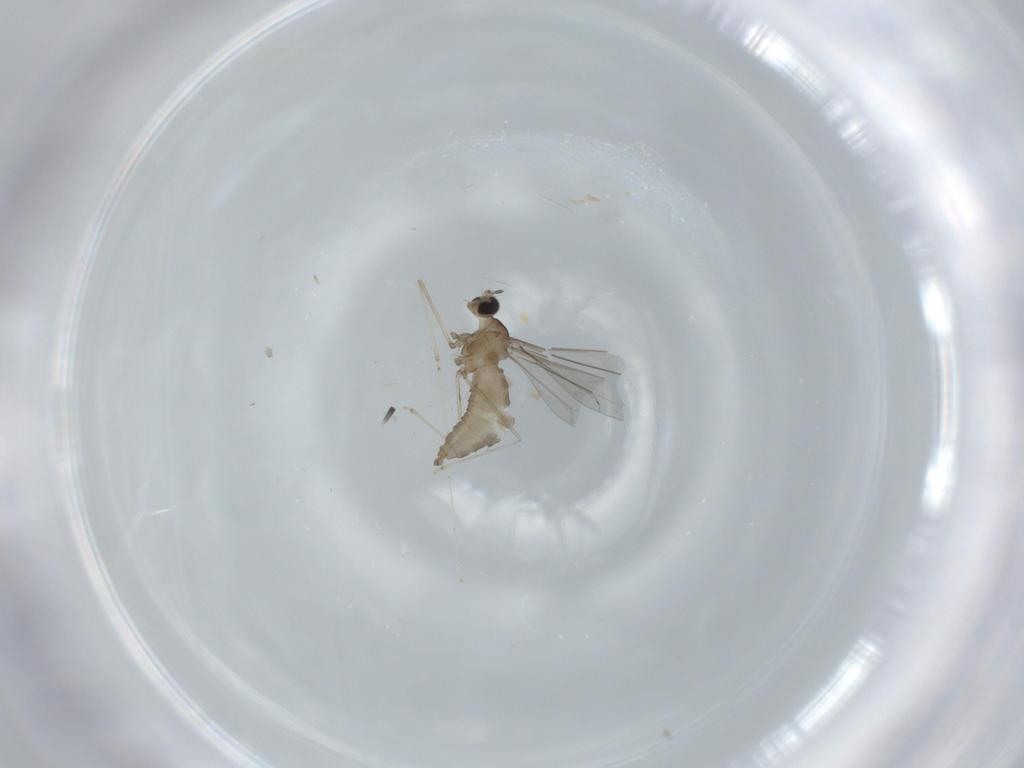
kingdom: Animalia
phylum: Arthropoda
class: Insecta
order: Diptera
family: Cecidomyiidae
